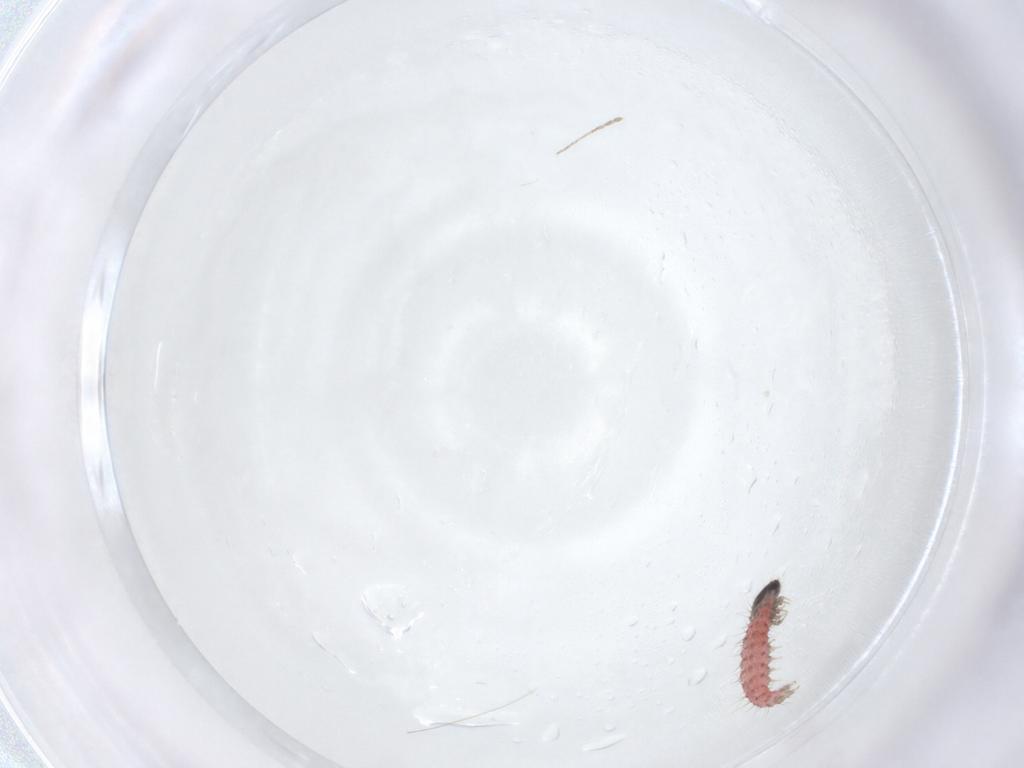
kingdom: Animalia
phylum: Arthropoda
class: Insecta
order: Lepidoptera
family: Crambidae
